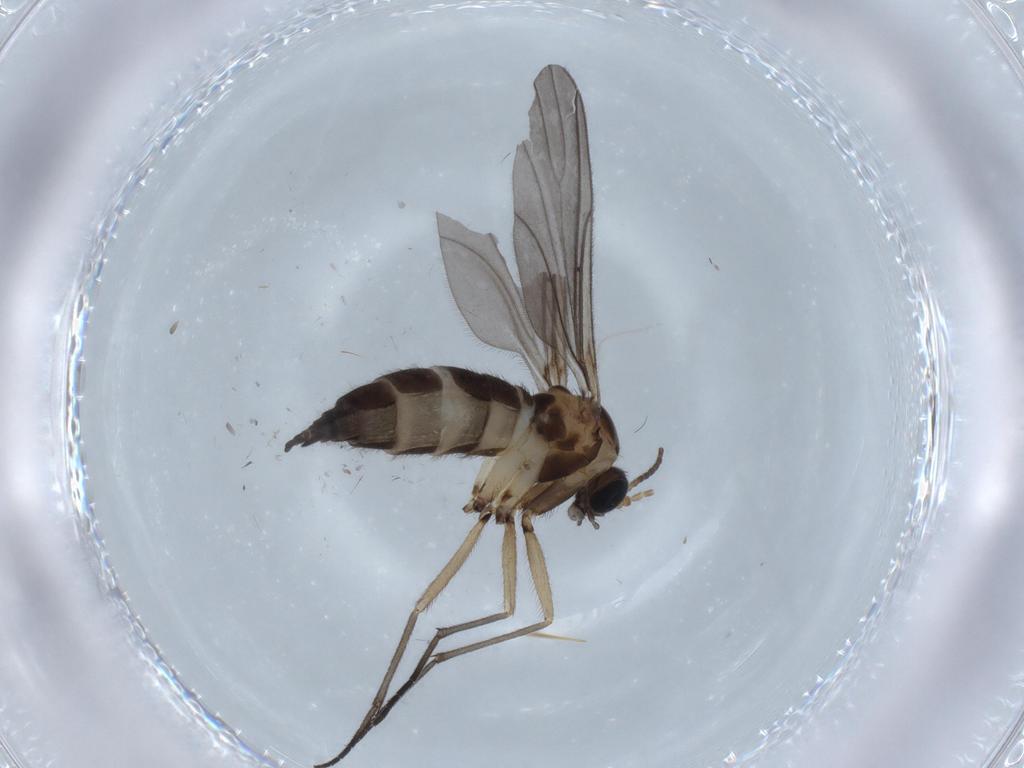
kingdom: Animalia
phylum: Arthropoda
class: Insecta
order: Diptera
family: Sciaridae
